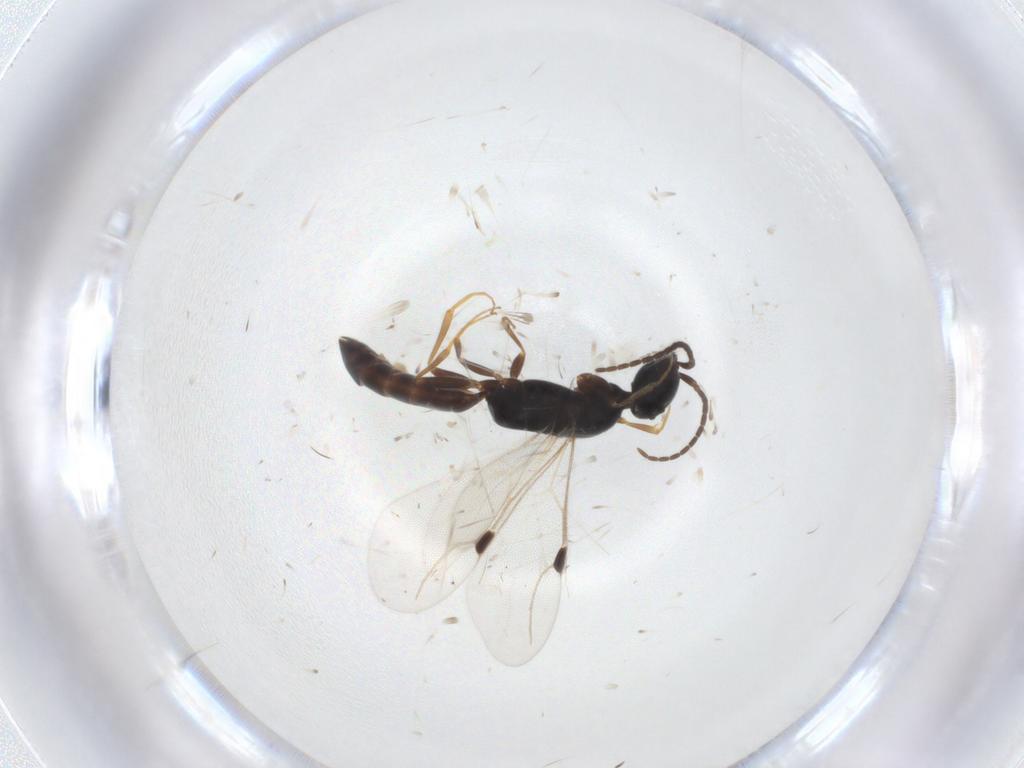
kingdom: Animalia
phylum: Arthropoda
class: Insecta
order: Hymenoptera
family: Bethylidae
